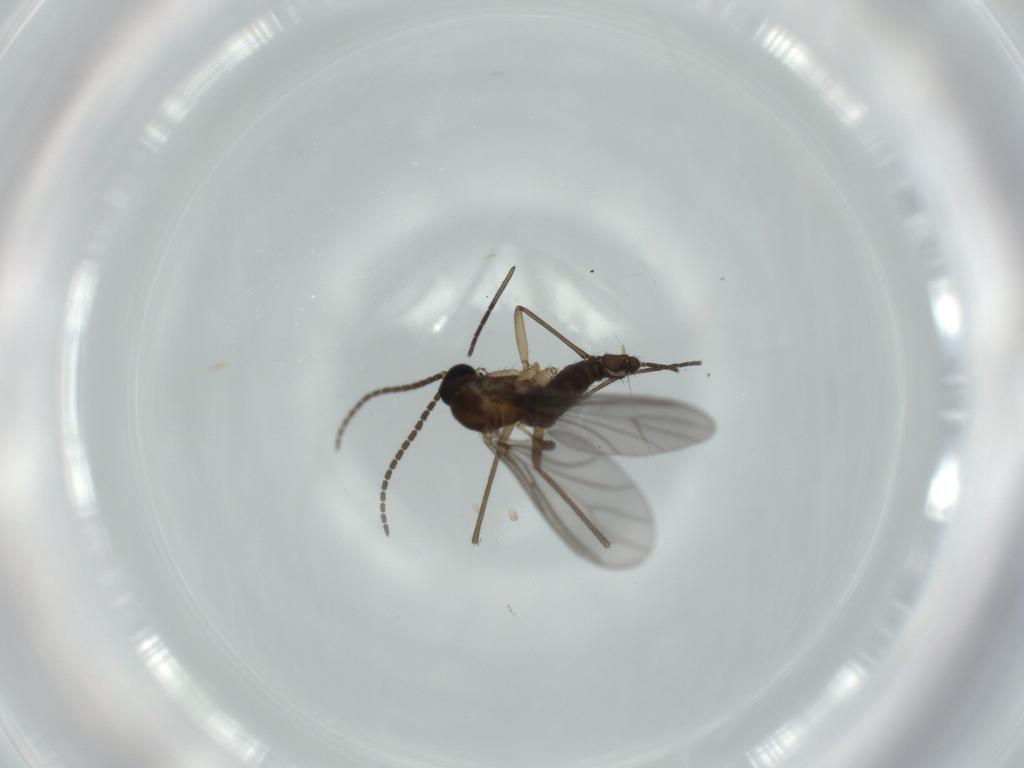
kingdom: Animalia
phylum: Arthropoda
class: Insecta
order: Diptera
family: Sciaridae
